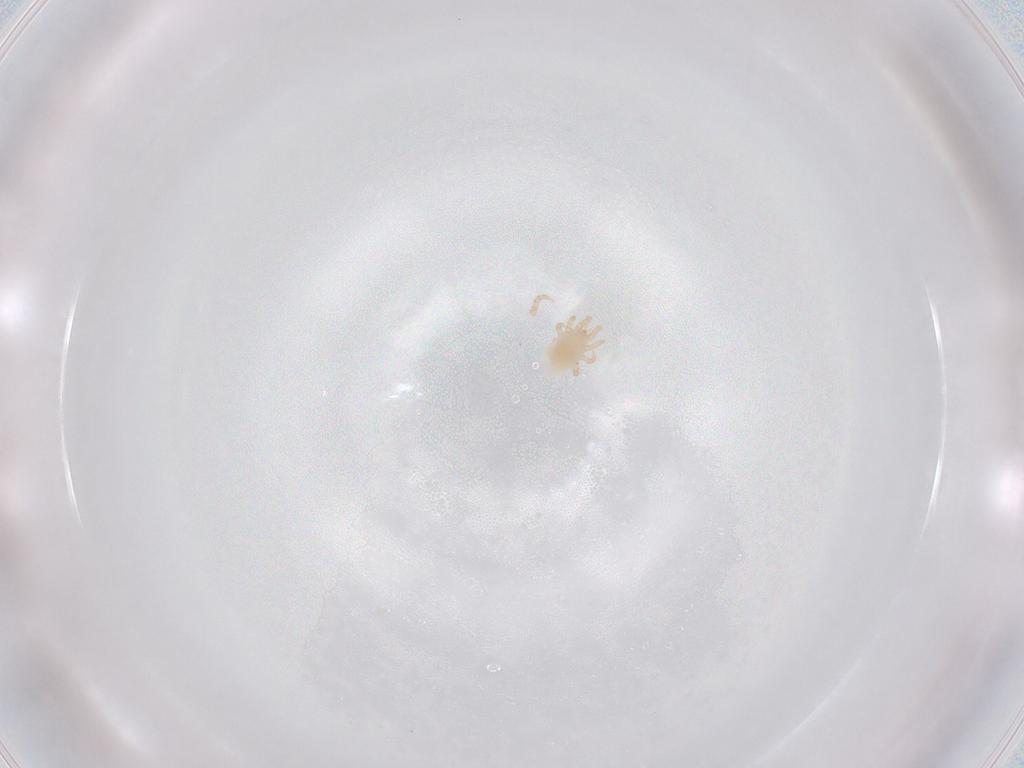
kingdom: Animalia
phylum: Arthropoda
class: Arachnida
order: Mesostigmata
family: Laelapidae
